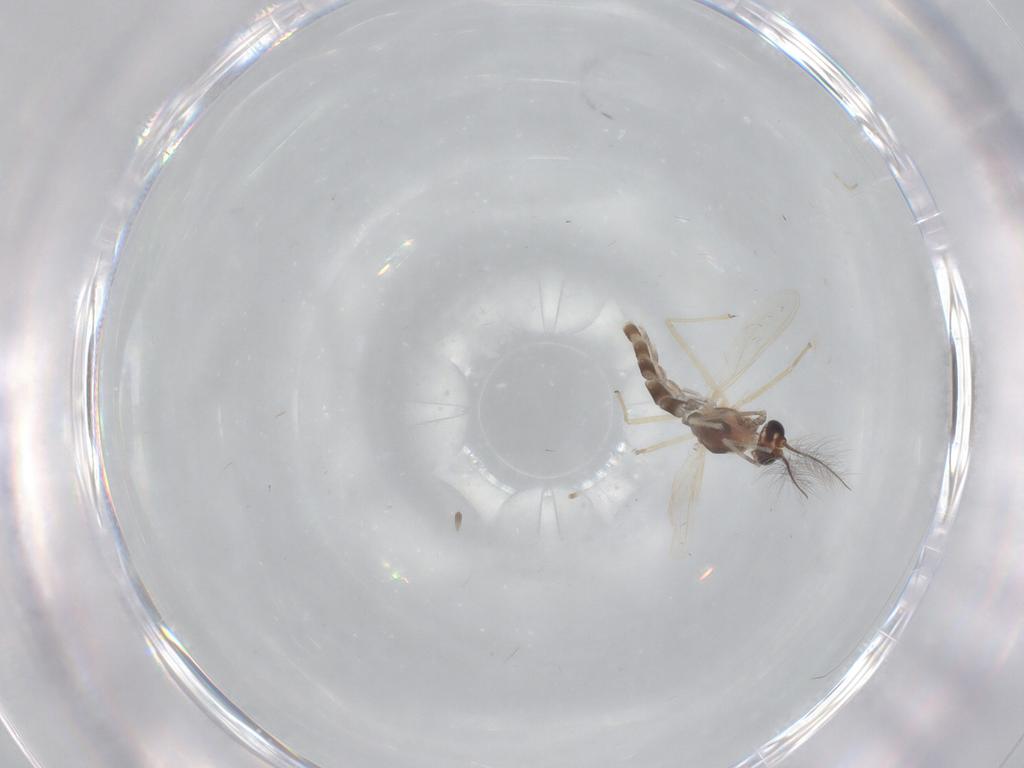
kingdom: Animalia
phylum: Arthropoda
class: Insecta
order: Diptera
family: Chironomidae
